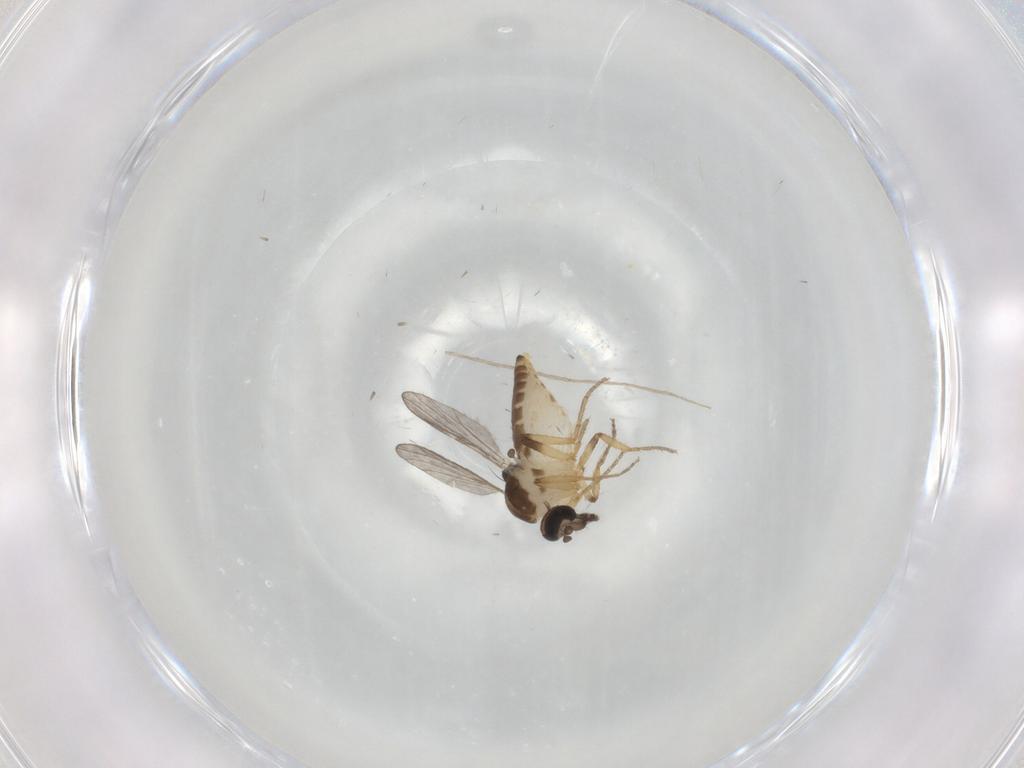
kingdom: Animalia
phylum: Arthropoda
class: Insecta
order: Diptera
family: Ceratopogonidae
